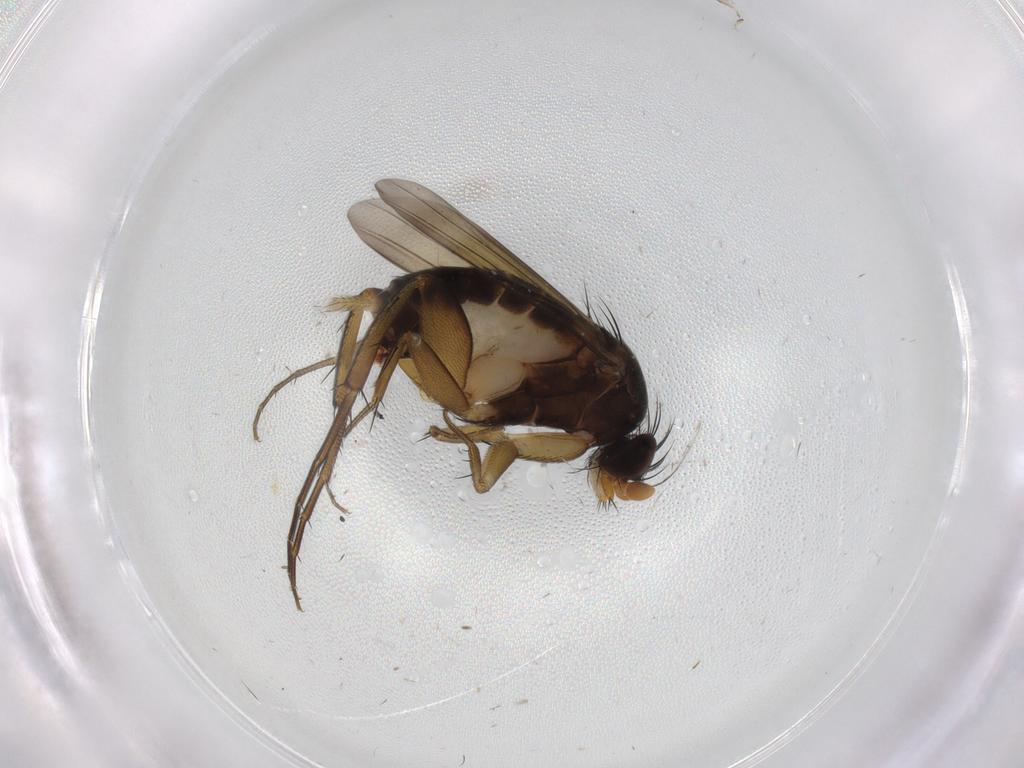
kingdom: Animalia
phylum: Arthropoda
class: Insecta
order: Diptera
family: Phoridae
